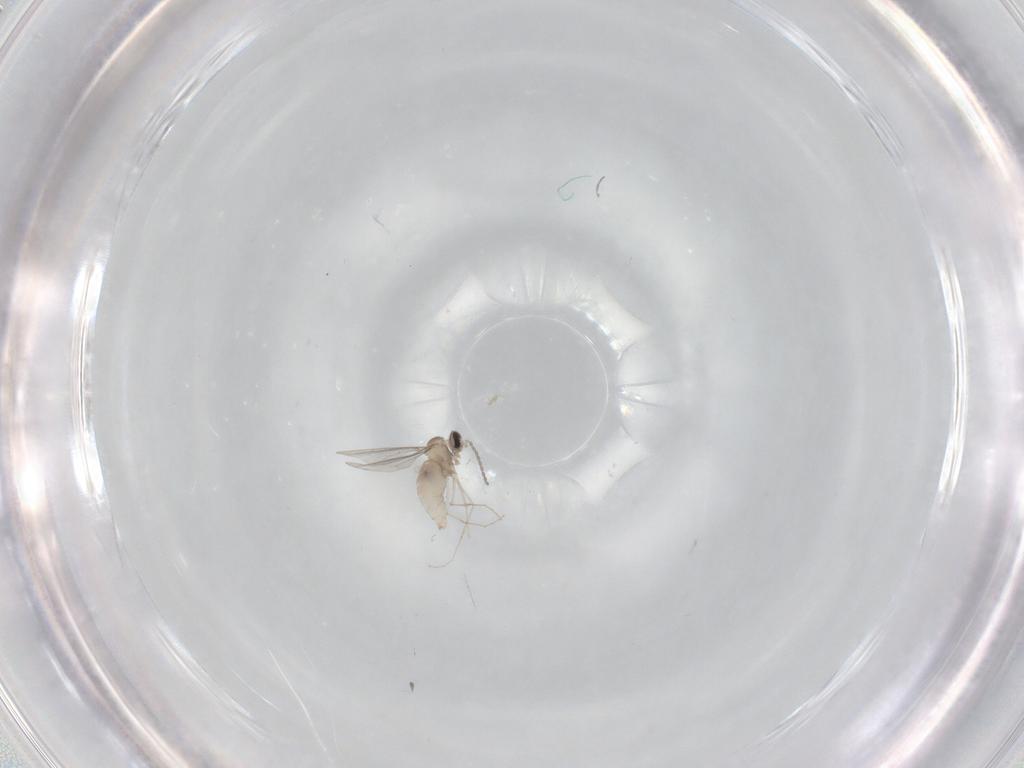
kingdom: Animalia
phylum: Arthropoda
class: Insecta
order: Diptera
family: Cecidomyiidae
